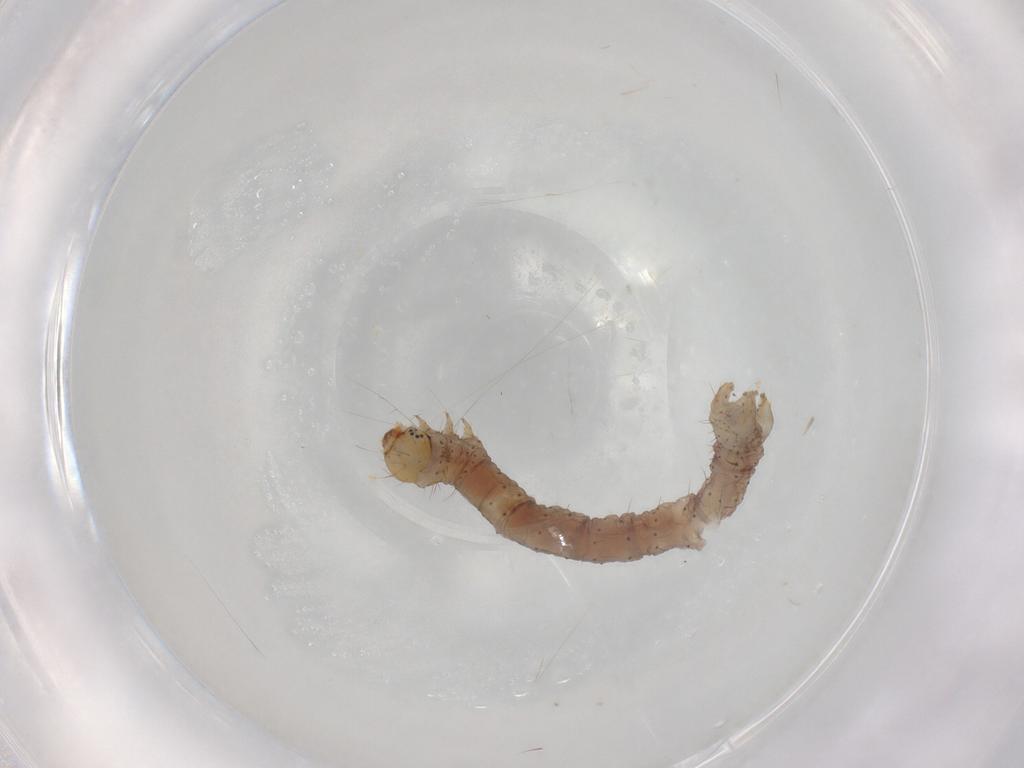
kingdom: Animalia
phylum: Arthropoda
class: Insecta
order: Lepidoptera
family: Geometridae
